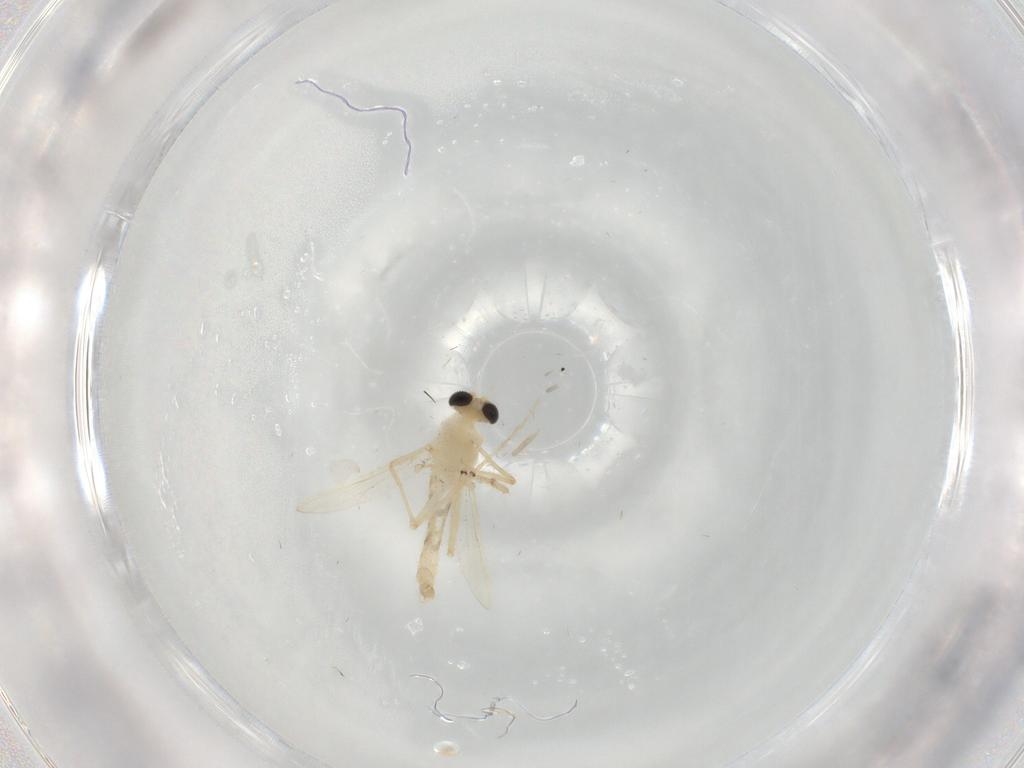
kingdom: Animalia
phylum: Arthropoda
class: Insecta
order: Diptera
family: Chironomidae
